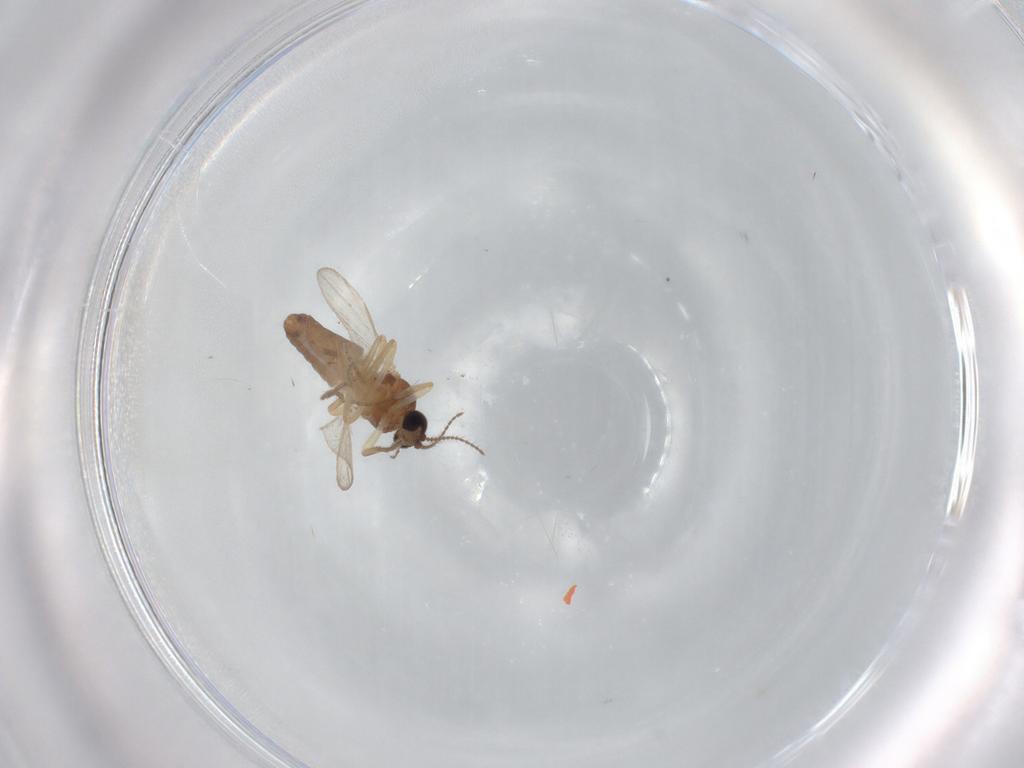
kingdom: Animalia
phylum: Arthropoda
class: Insecta
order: Diptera
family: Ceratopogonidae
